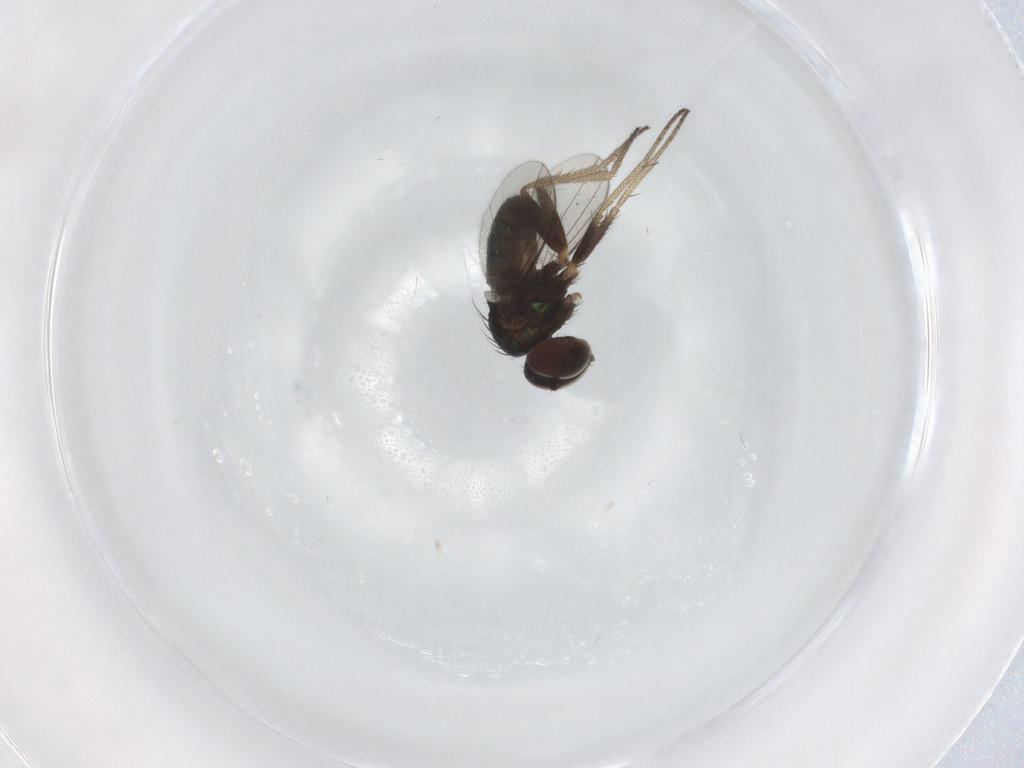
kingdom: Animalia
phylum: Arthropoda
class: Insecta
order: Diptera
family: Dolichopodidae
